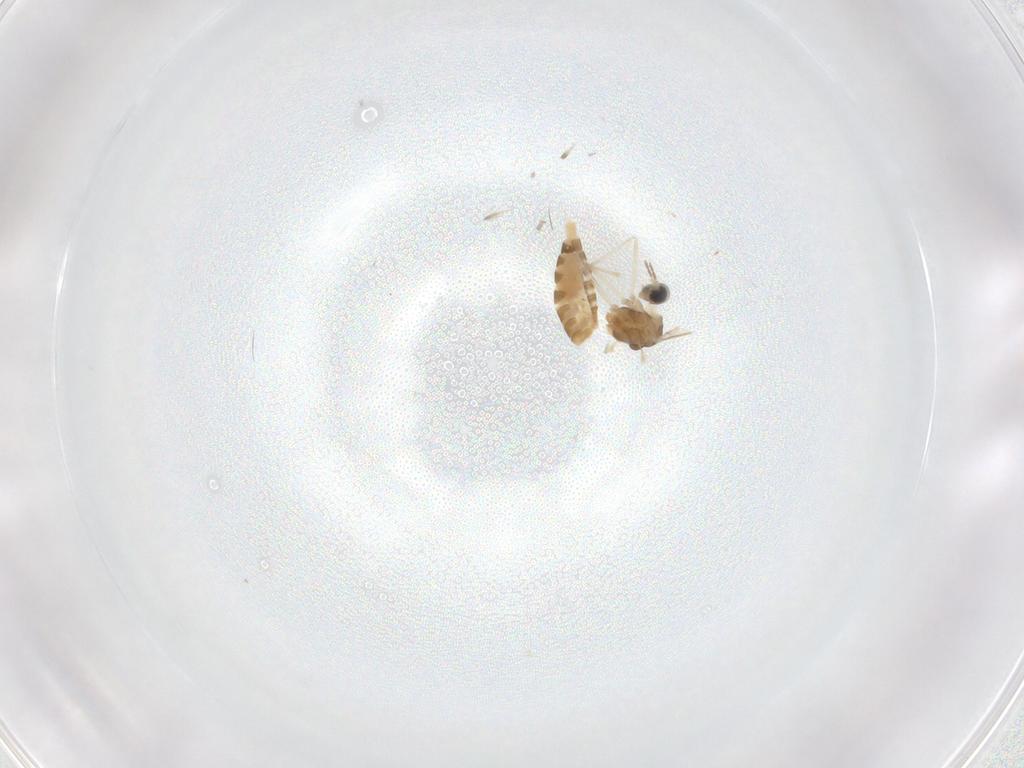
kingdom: Animalia
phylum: Arthropoda
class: Insecta
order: Diptera
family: Cecidomyiidae
